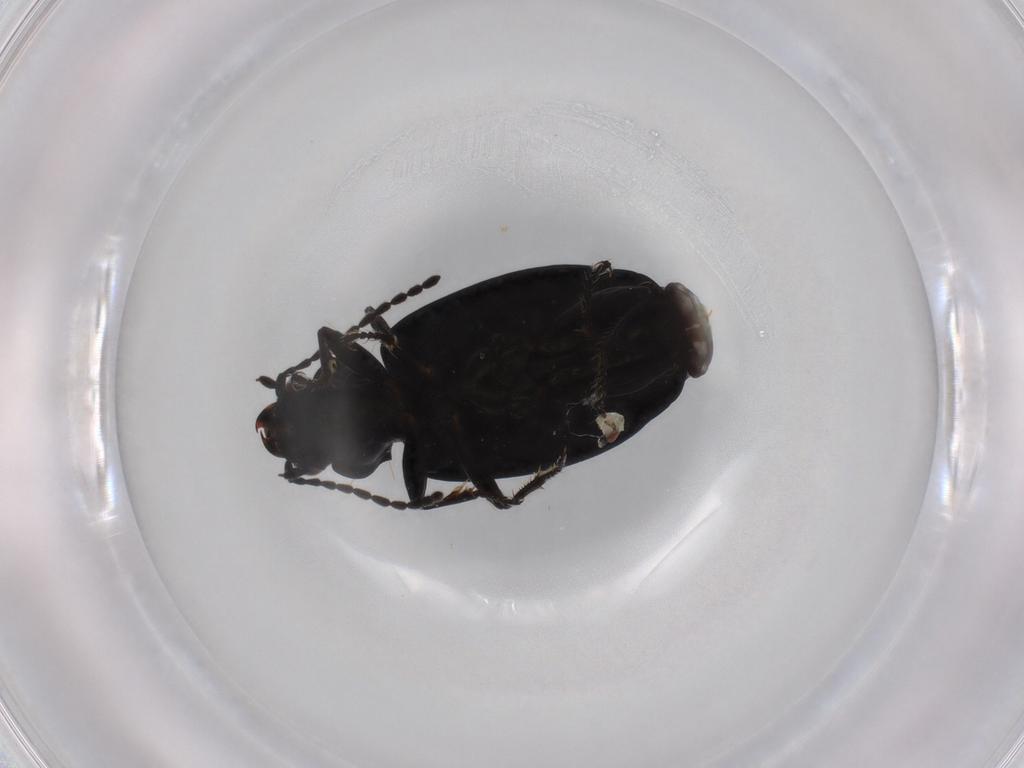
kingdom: Animalia
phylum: Arthropoda
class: Insecta
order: Coleoptera
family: Carabidae
